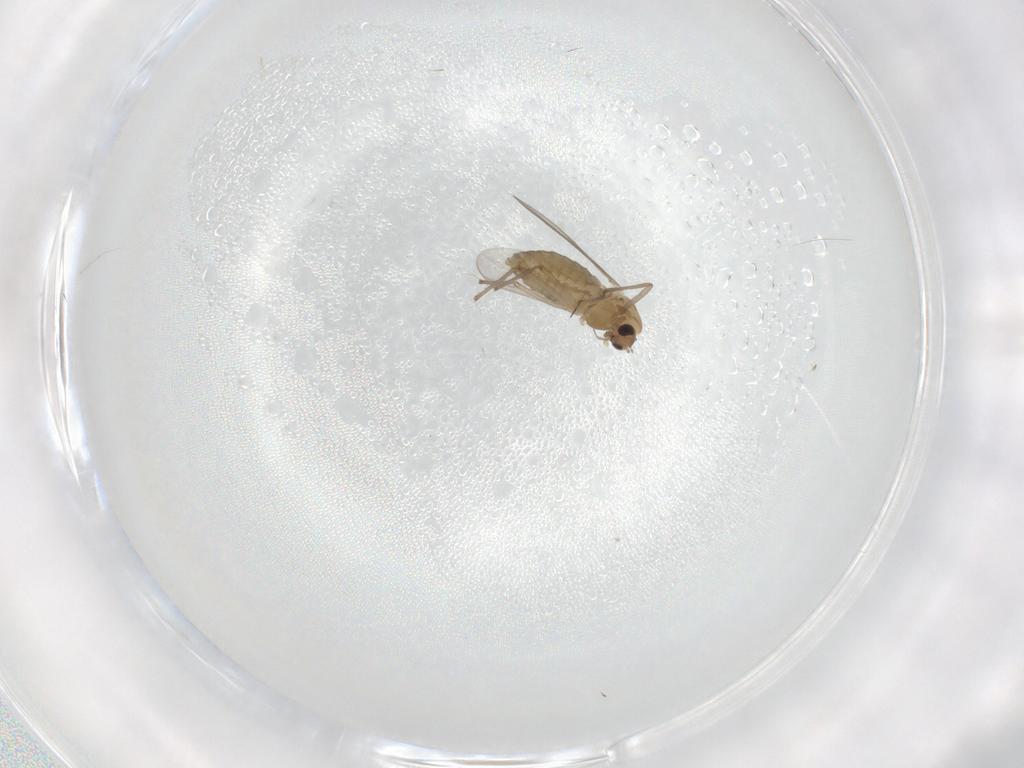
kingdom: Animalia
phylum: Arthropoda
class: Insecta
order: Diptera
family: Chironomidae
